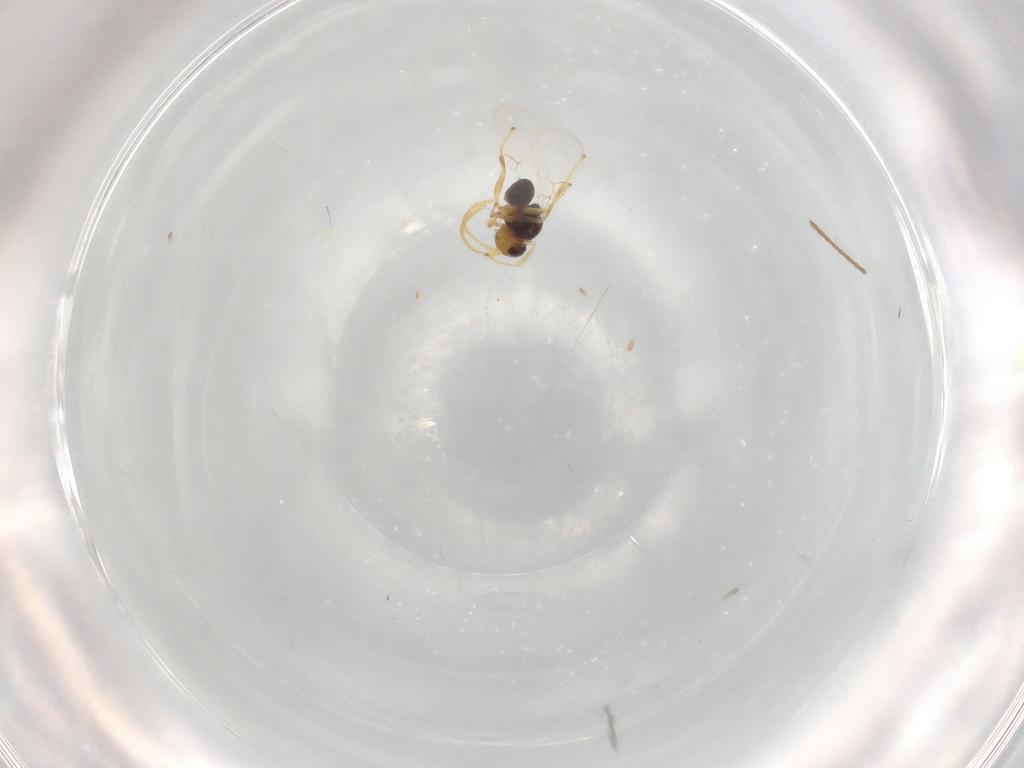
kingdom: Animalia
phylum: Arthropoda
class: Insecta
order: Hymenoptera
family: Figitidae
